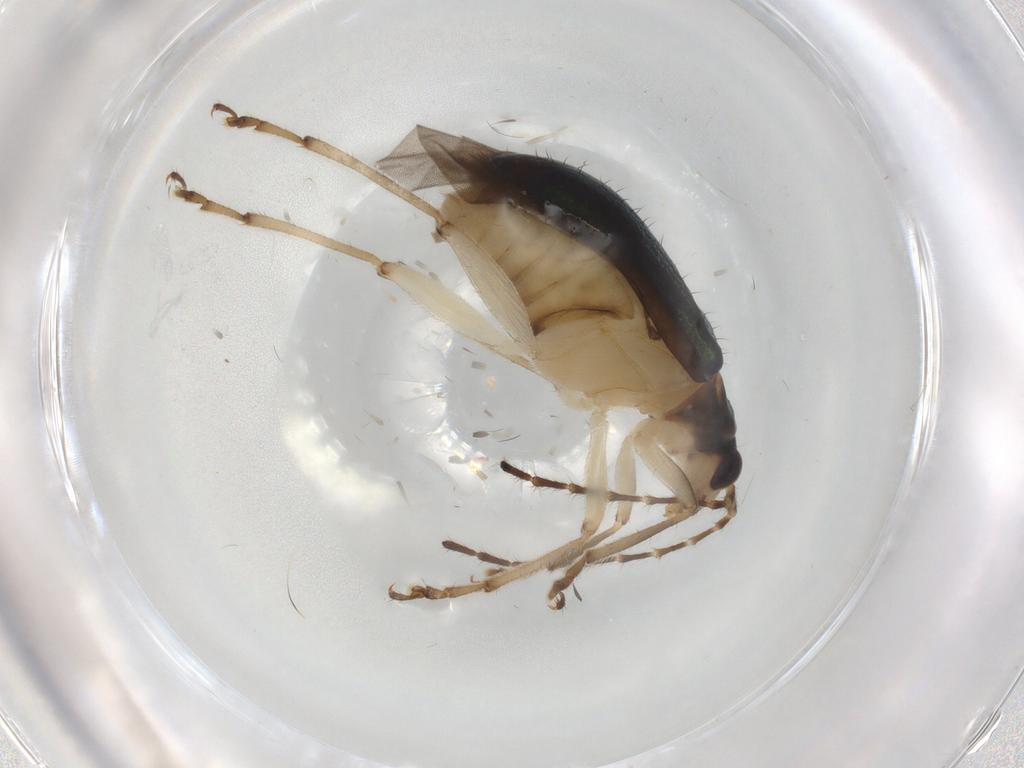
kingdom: Animalia
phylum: Arthropoda
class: Insecta
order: Coleoptera
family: Chrysomelidae
